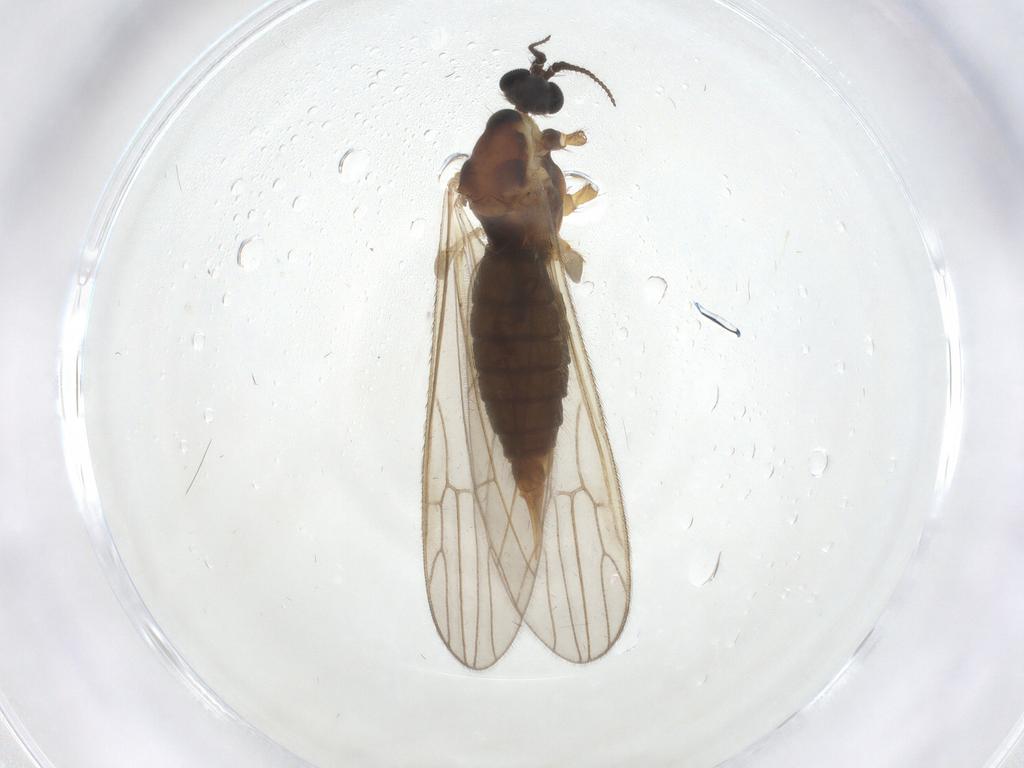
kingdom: Animalia
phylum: Arthropoda
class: Insecta
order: Diptera
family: Agromyzidae
